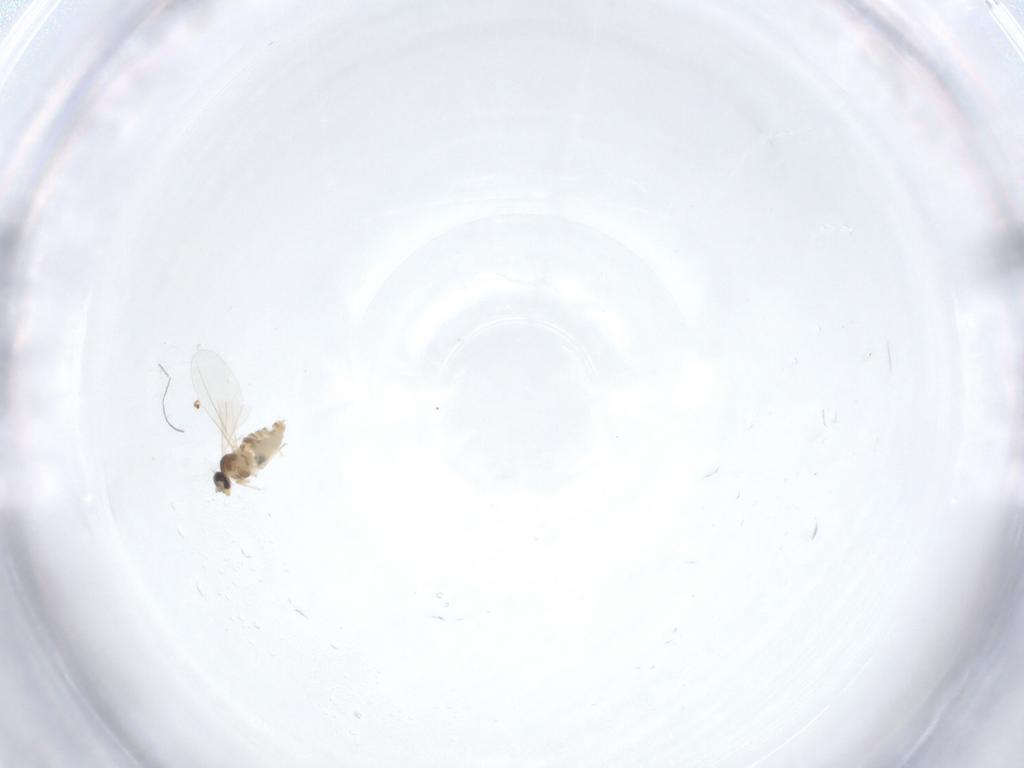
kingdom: Animalia
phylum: Arthropoda
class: Insecta
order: Diptera
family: Cecidomyiidae
